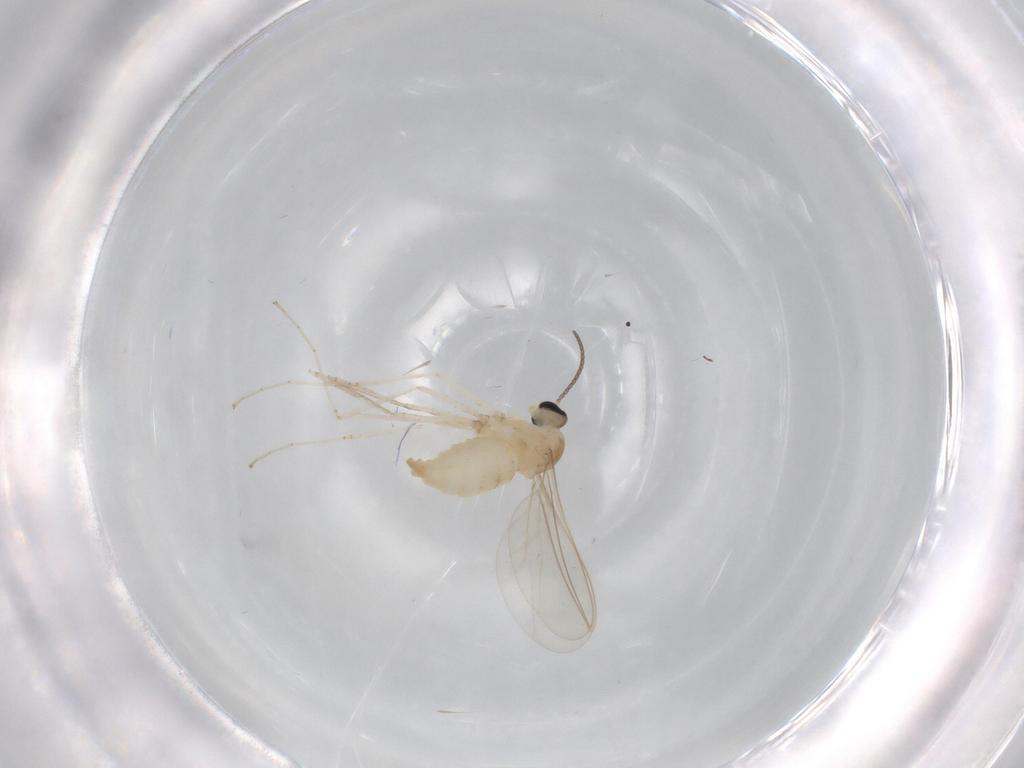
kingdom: Animalia
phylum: Arthropoda
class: Insecta
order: Diptera
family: Cecidomyiidae
